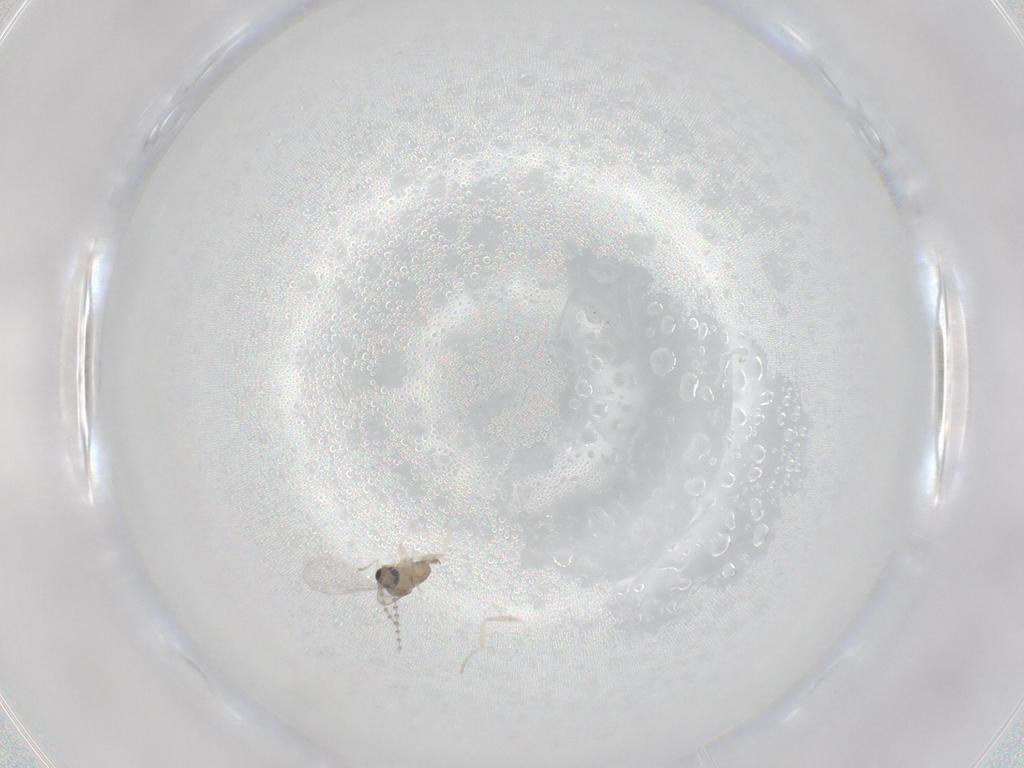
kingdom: Animalia
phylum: Arthropoda
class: Insecta
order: Diptera
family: Cecidomyiidae
